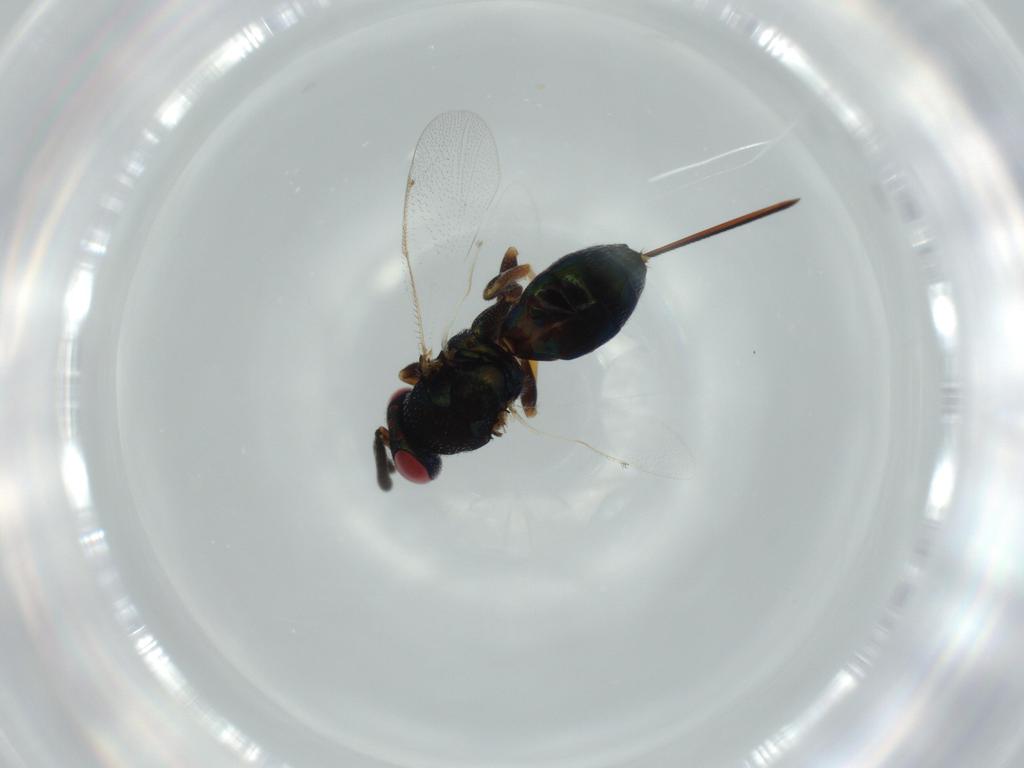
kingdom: Animalia
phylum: Arthropoda
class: Insecta
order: Hymenoptera
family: Torymidae
